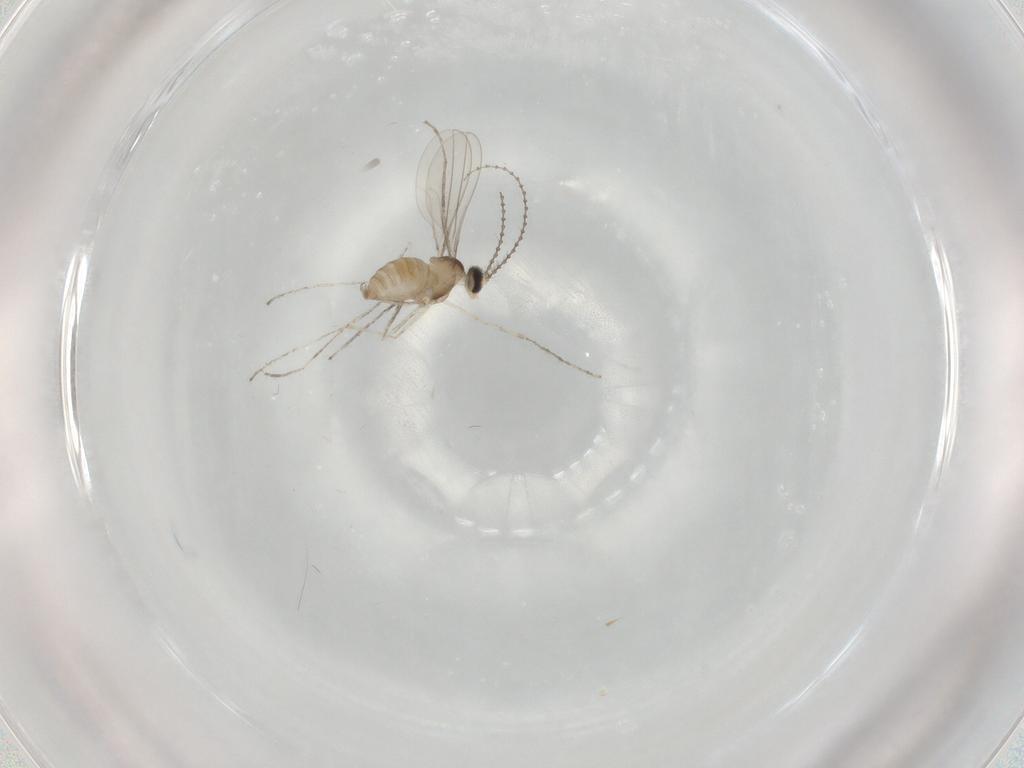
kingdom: Animalia
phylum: Arthropoda
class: Insecta
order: Diptera
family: Cecidomyiidae
